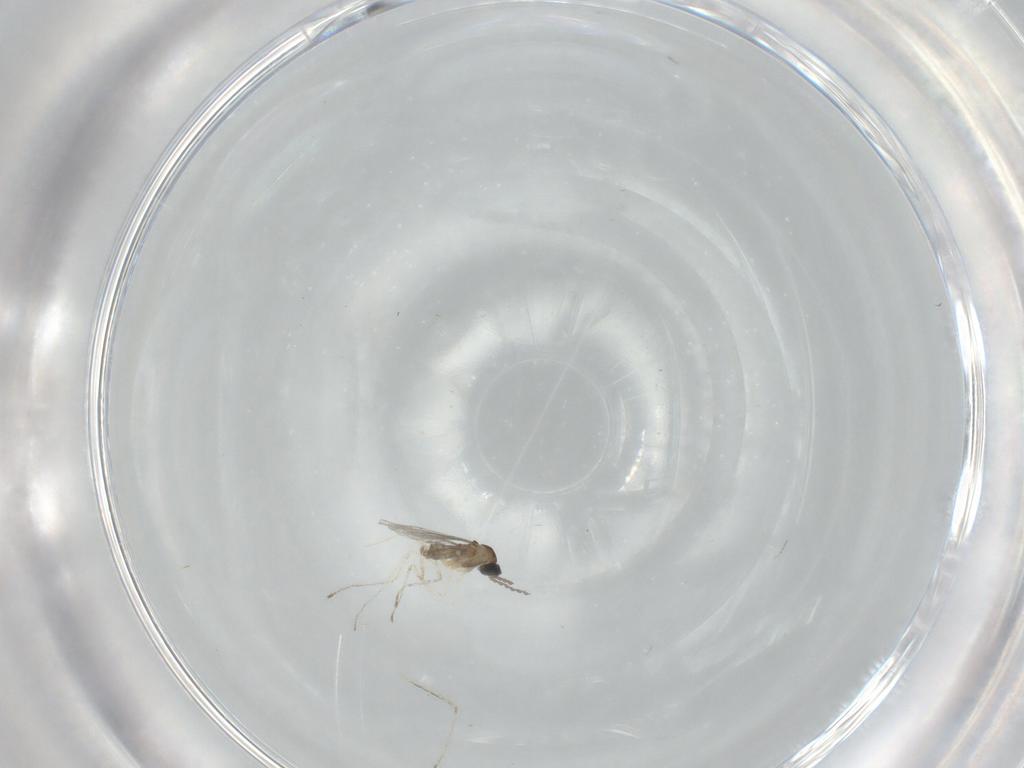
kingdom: Animalia
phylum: Arthropoda
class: Insecta
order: Diptera
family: Cecidomyiidae
